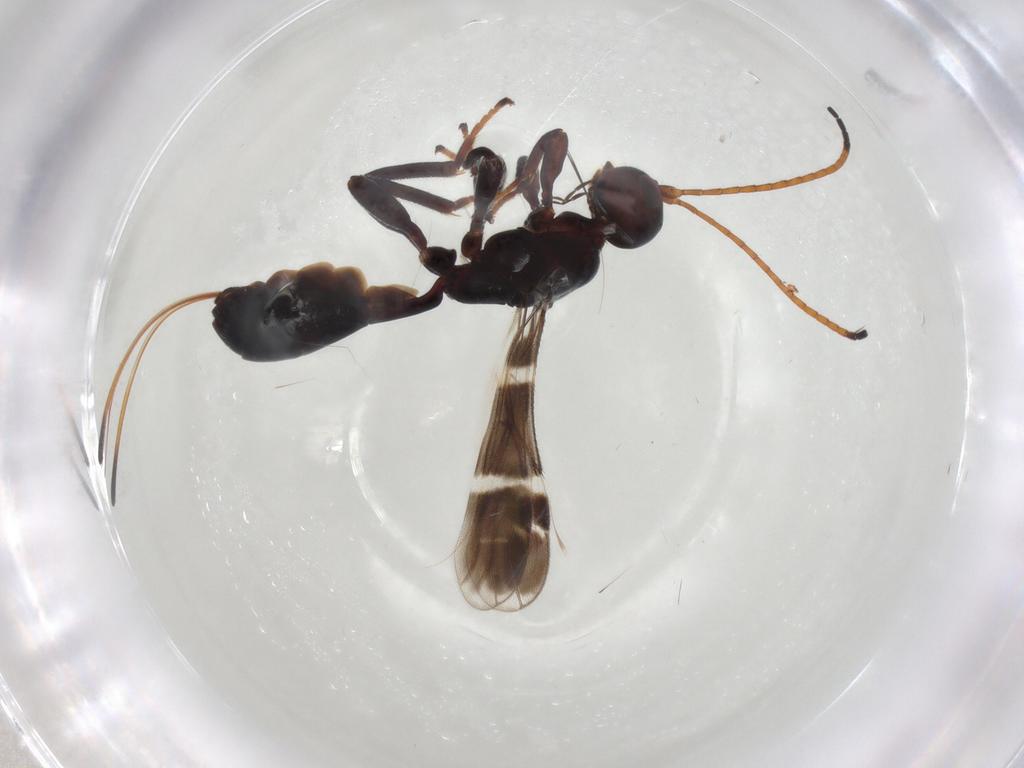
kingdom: Animalia
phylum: Arthropoda
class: Insecta
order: Hymenoptera
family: Braconidae
